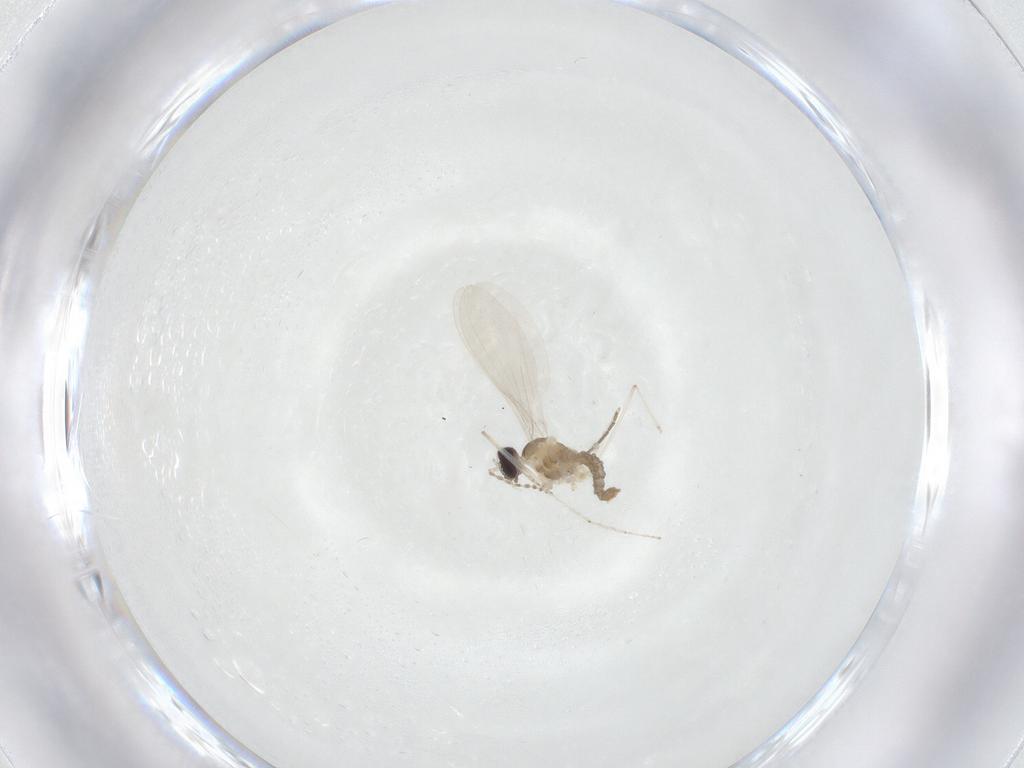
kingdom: Animalia
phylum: Arthropoda
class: Insecta
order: Diptera
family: Cecidomyiidae
